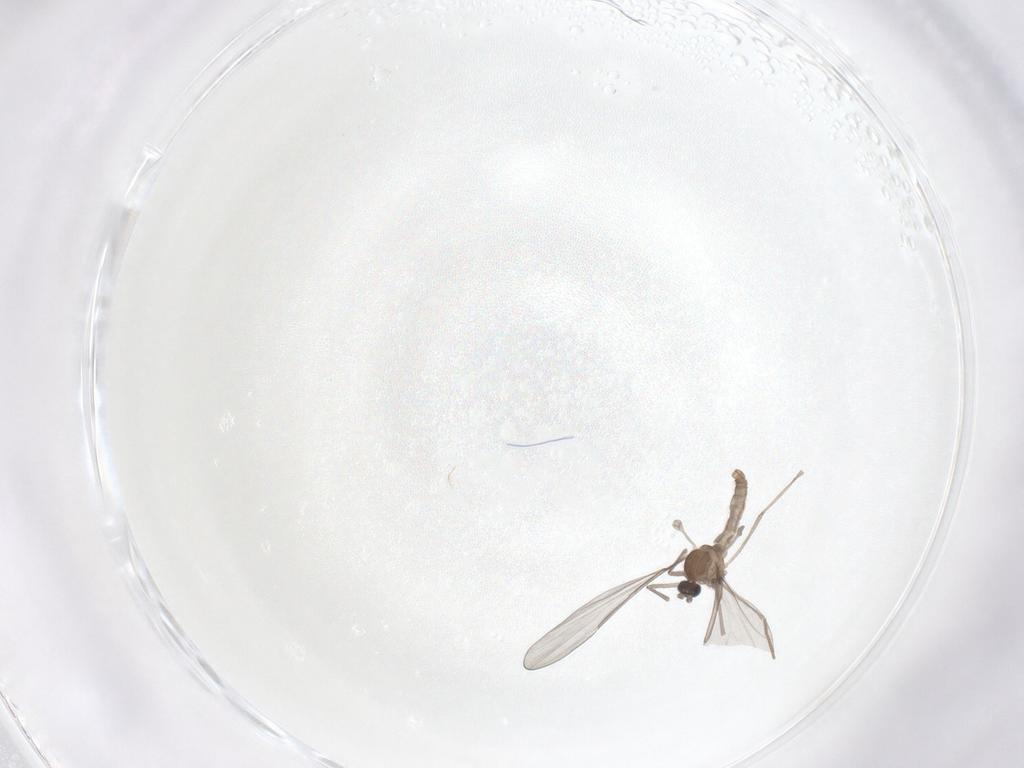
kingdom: Animalia
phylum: Arthropoda
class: Insecta
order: Diptera
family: Cecidomyiidae
